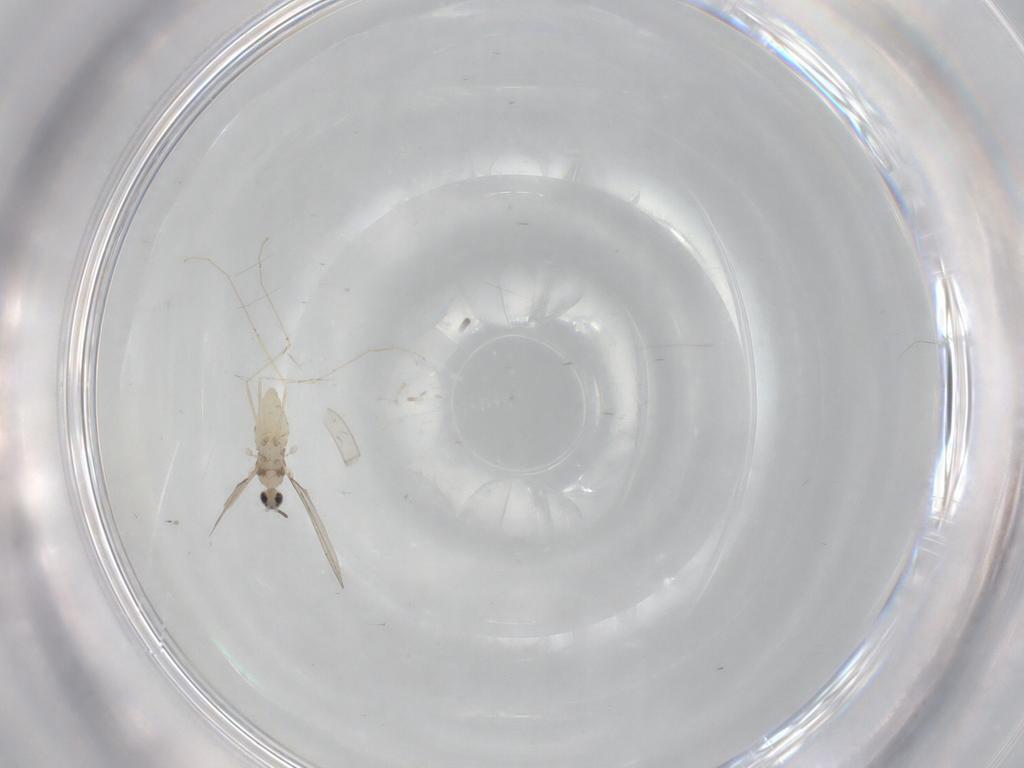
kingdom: Animalia
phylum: Arthropoda
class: Insecta
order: Diptera
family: Cecidomyiidae
